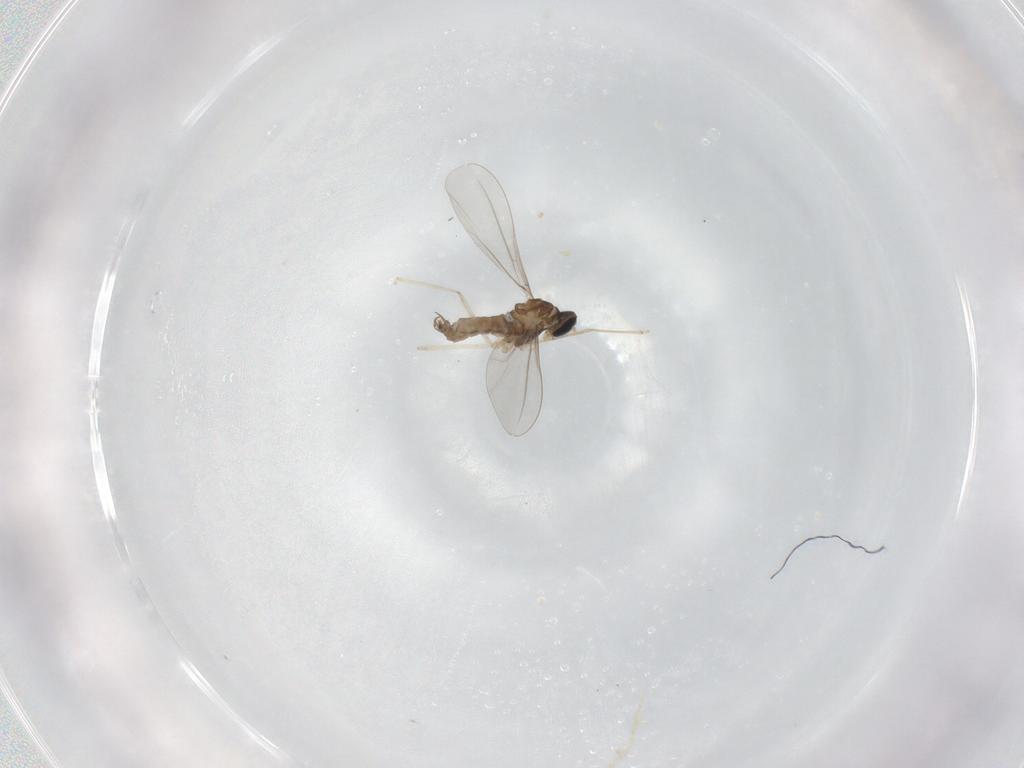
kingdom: Animalia
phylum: Arthropoda
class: Insecta
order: Diptera
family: Cecidomyiidae
